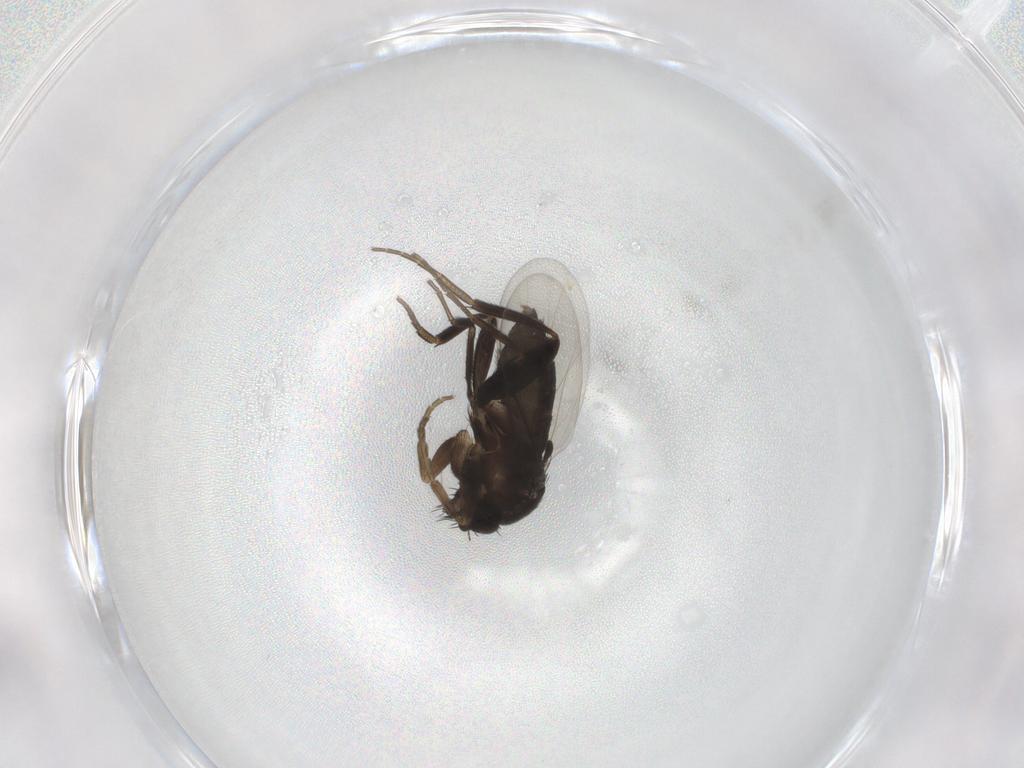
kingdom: Animalia
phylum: Arthropoda
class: Insecta
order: Diptera
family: Phoridae
